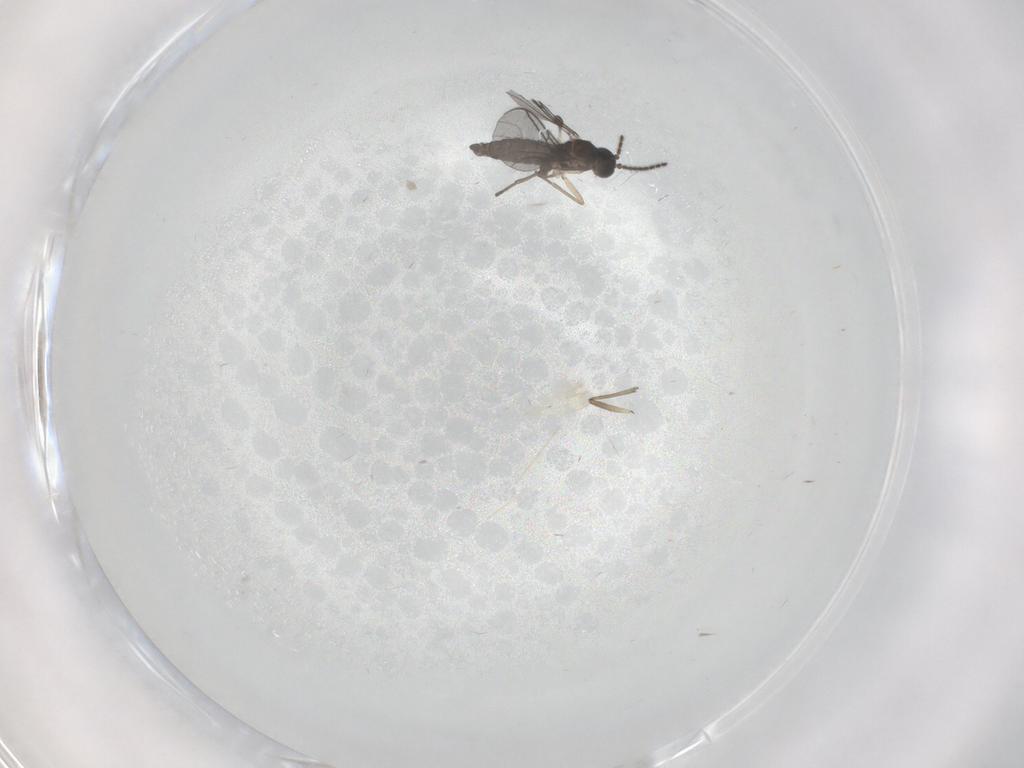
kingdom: Animalia
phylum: Arthropoda
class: Insecta
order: Diptera
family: Sciaridae
